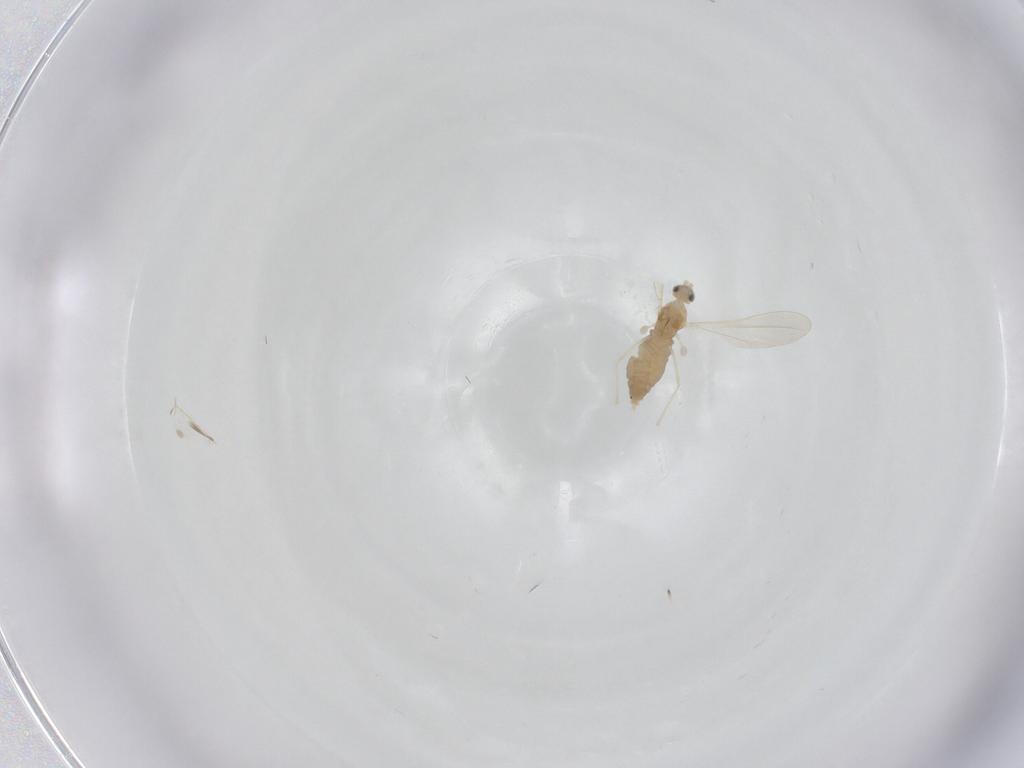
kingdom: Animalia
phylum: Arthropoda
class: Insecta
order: Diptera
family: Cecidomyiidae
